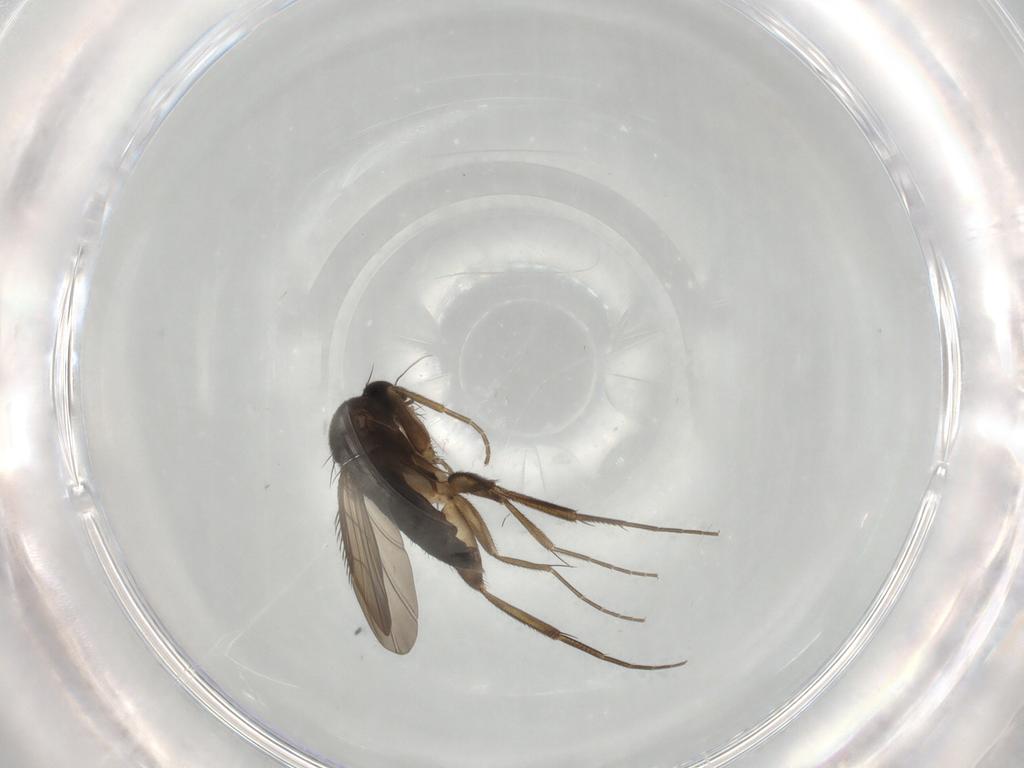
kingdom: Animalia
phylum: Arthropoda
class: Insecta
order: Diptera
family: Phoridae
